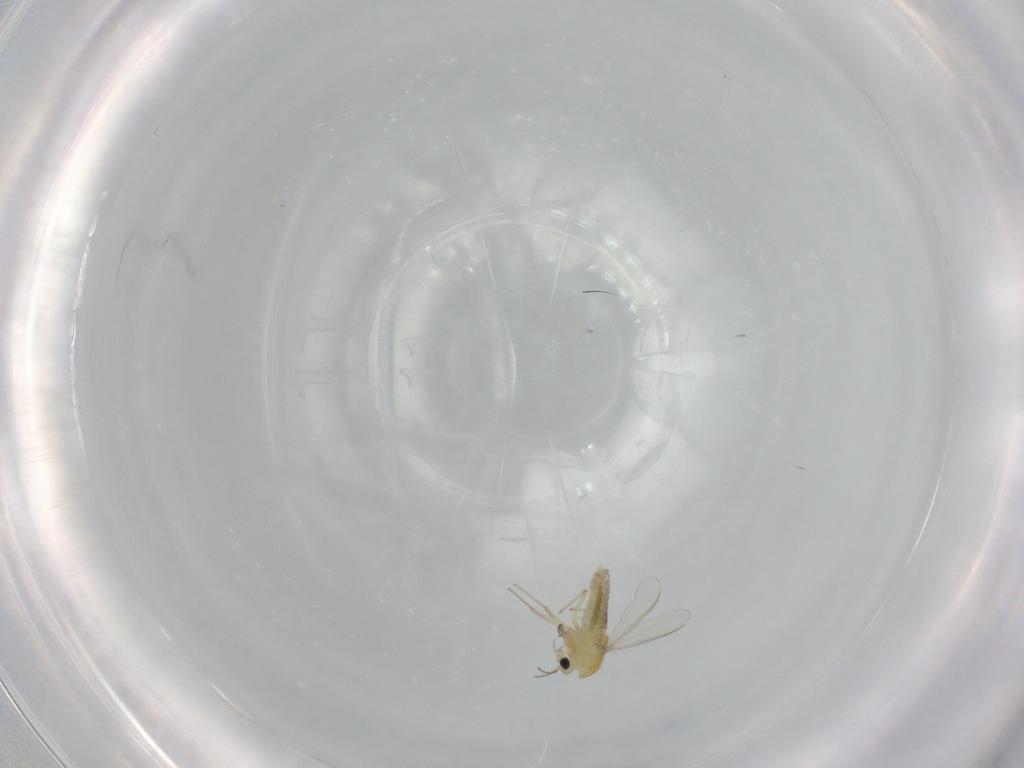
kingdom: Animalia
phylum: Arthropoda
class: Insecta
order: Diptera
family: Chironomidae
